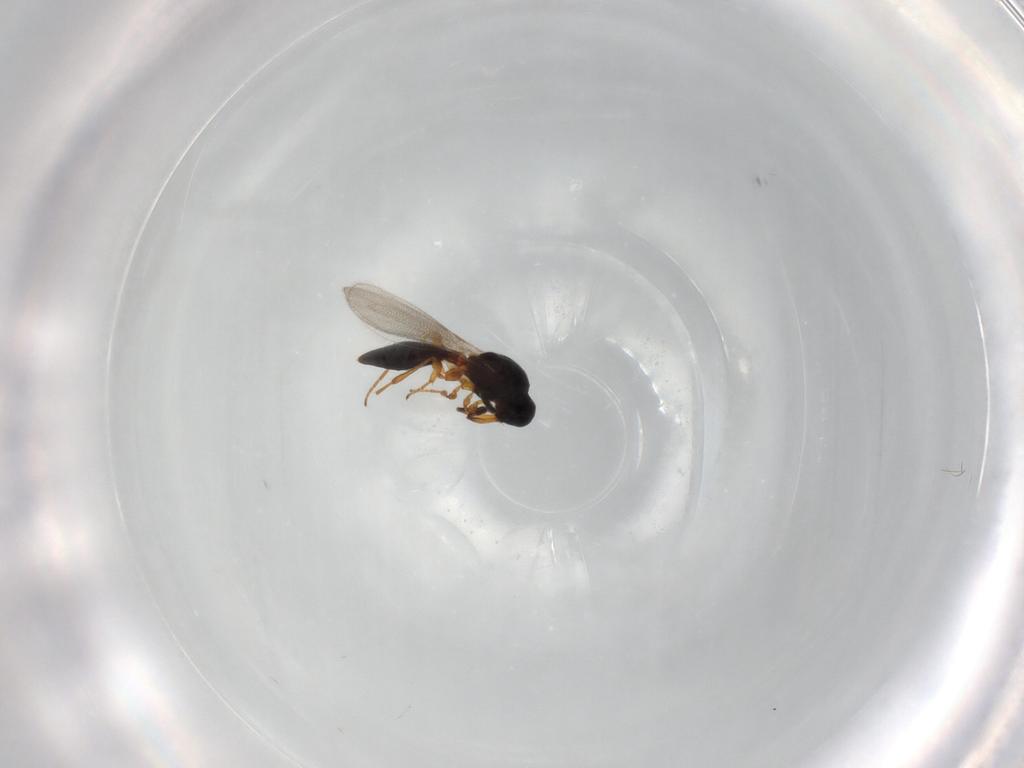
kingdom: Animalia
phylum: Arthropoda
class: Insecta
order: Hymenoptera
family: Platygastridae
